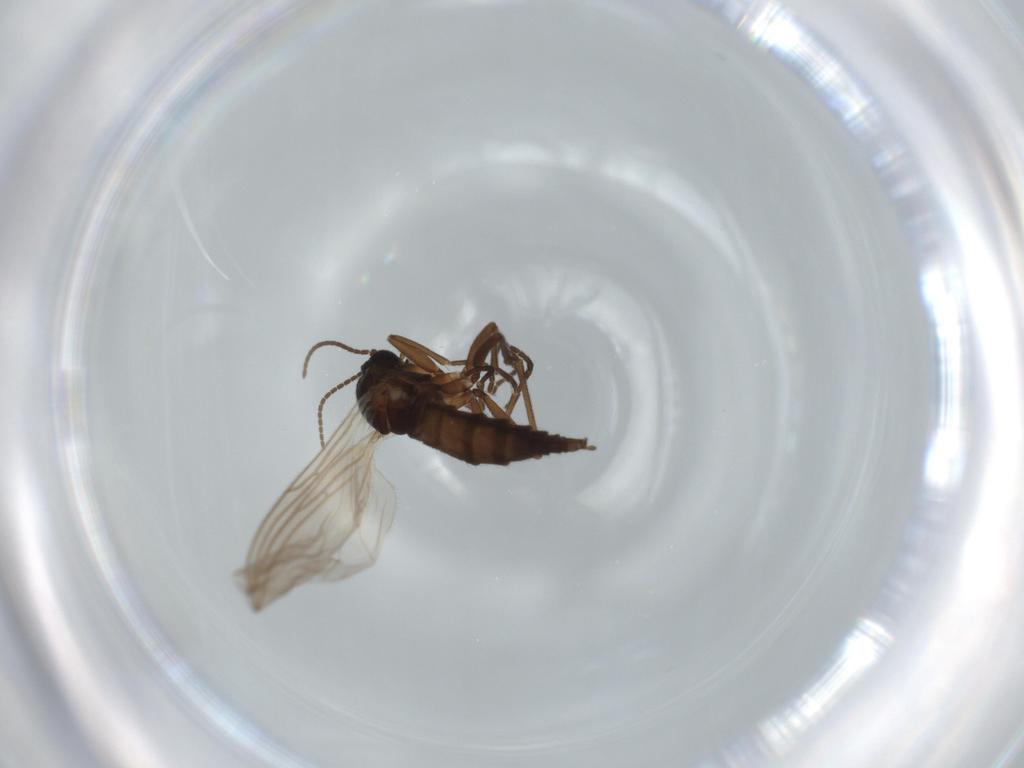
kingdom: Animalia
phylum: Arthropoda
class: Insecta
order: Diptera
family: Sciaridae
